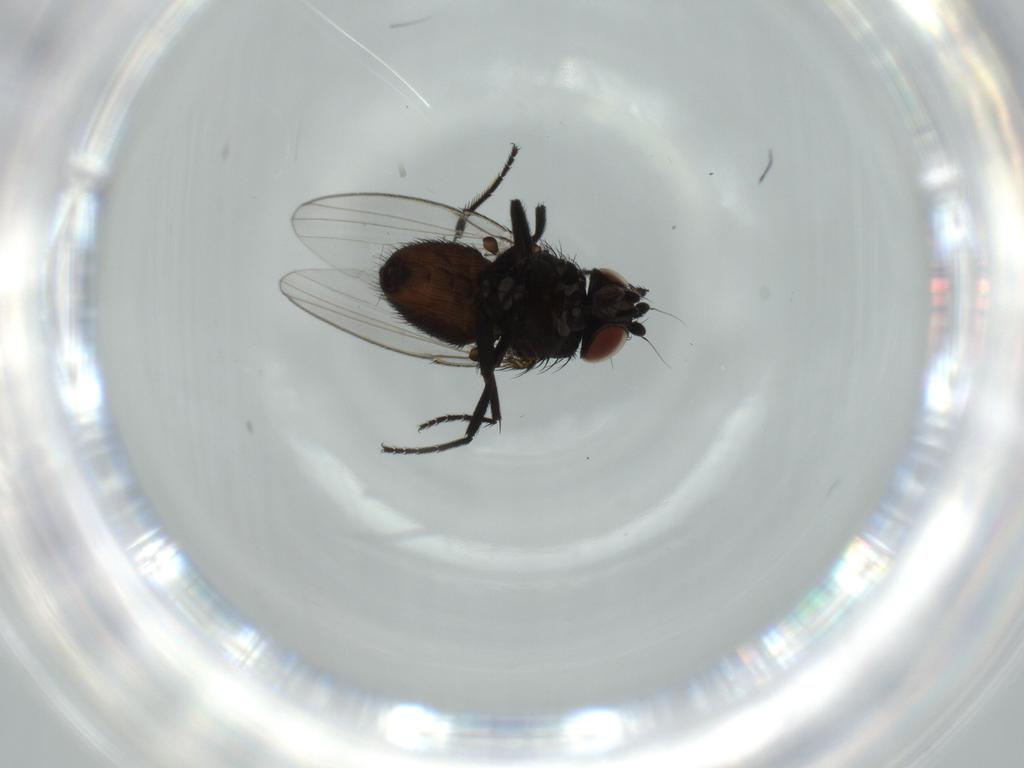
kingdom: Animalia
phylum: Arthropoda
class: Insecta
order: Diptera
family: Milichiidae
